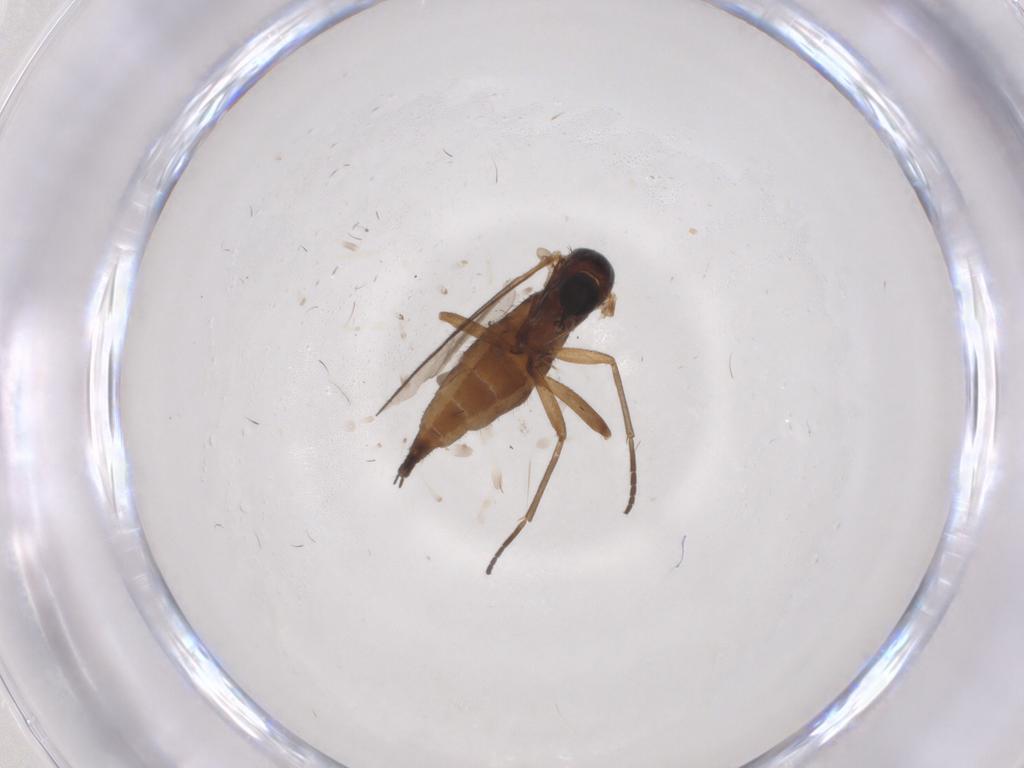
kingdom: Animalia
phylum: Arthropoda
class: Insecta
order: Diptera
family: Sciaridae
